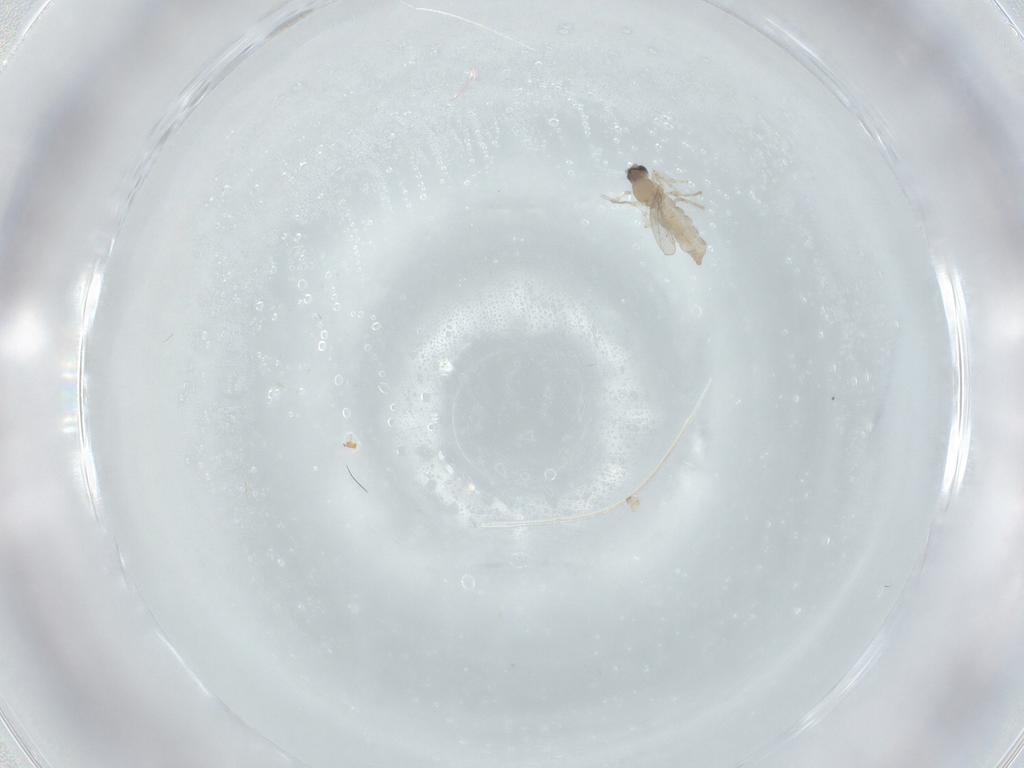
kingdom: Animalia
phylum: Arthropoda
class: Insecta
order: Diptera
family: Cecidomyiidae
